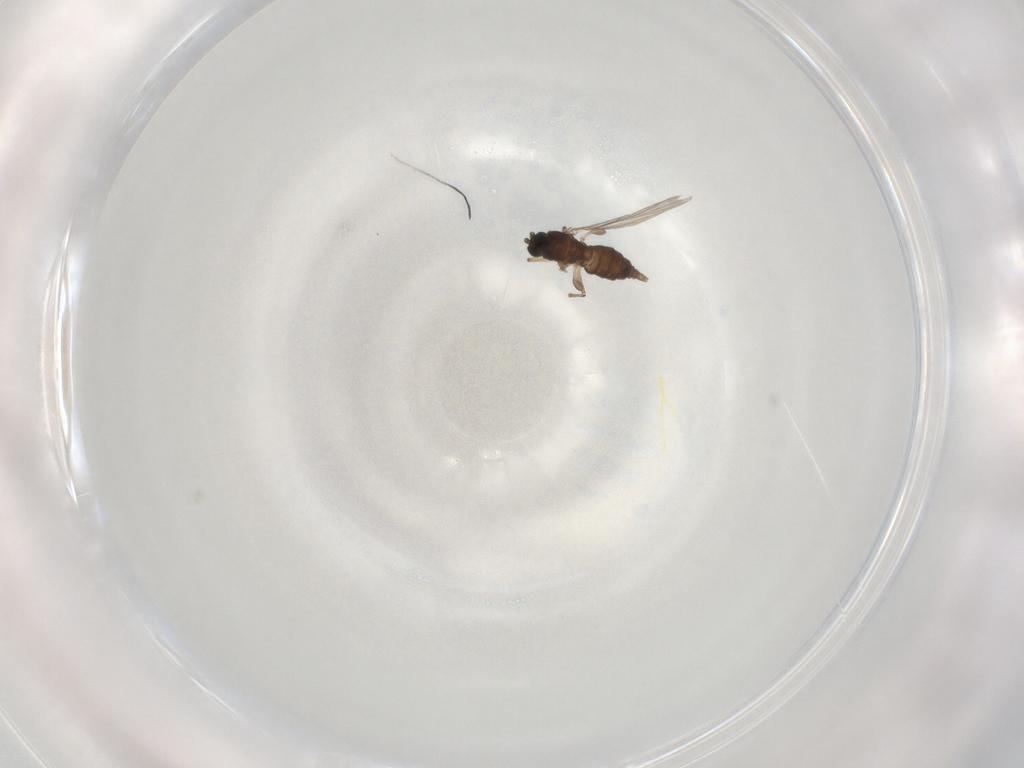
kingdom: Animalia
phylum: Arthropoda
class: Insecta
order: Diptera
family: Sciaridae
